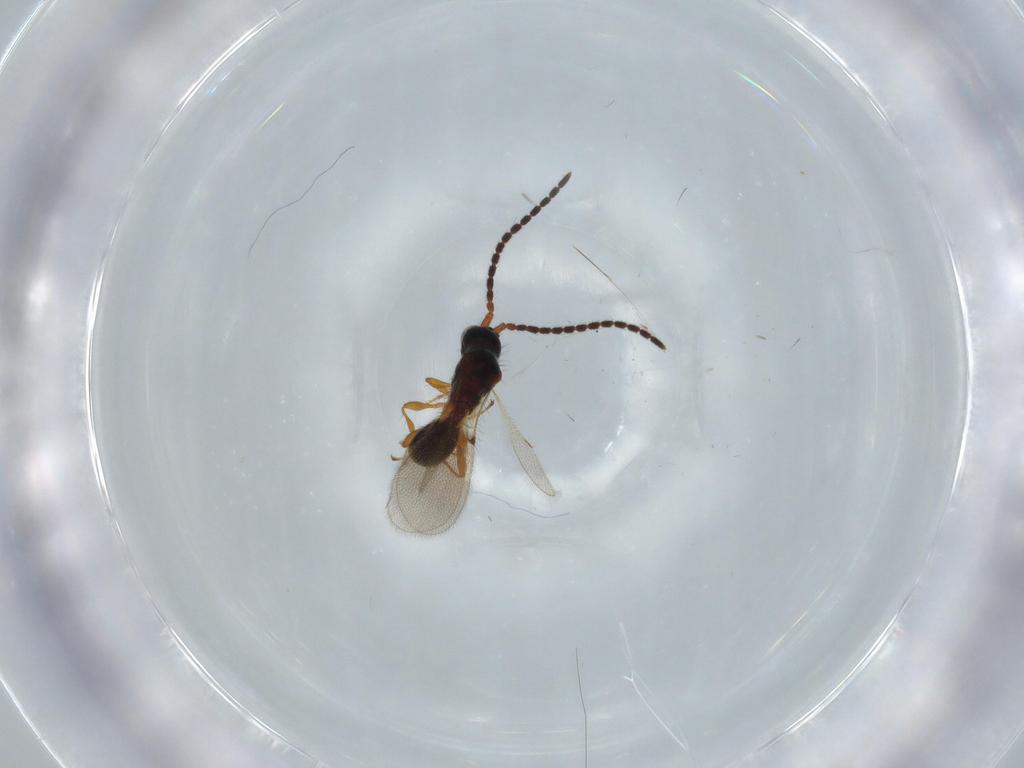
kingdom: Animalia
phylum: Arthropoda
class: Insecta
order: Hymenoptera
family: Diapriidae
